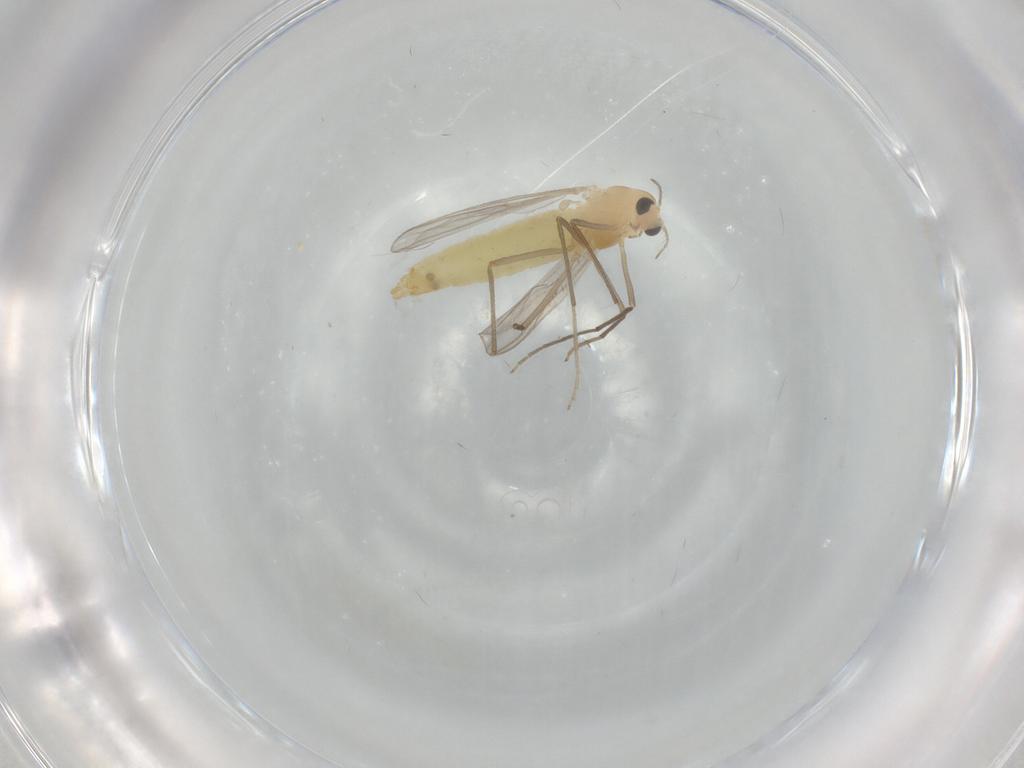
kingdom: Animalia
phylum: Arthropoda
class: Insecta
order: Diptera
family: Chironomidae
